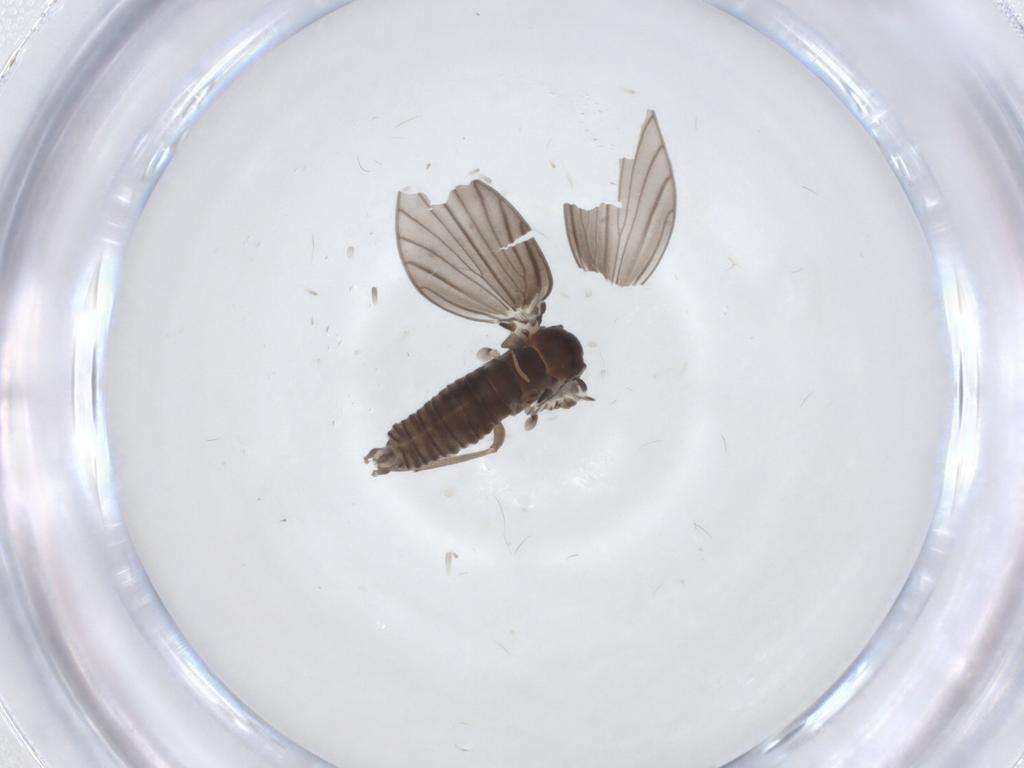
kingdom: Animalia
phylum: Arthropoda
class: Insecta
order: Diptera
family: Psychodidae
